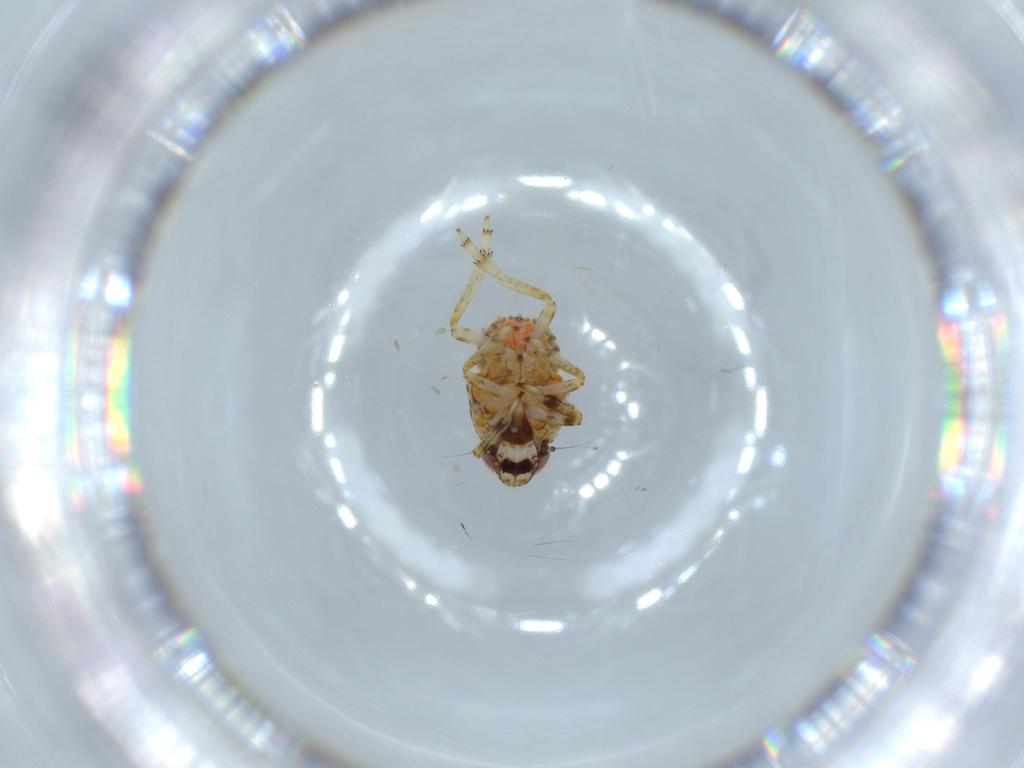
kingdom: Animalia
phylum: Arthropoda
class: Insecta
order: Hemiptera
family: Issidae
